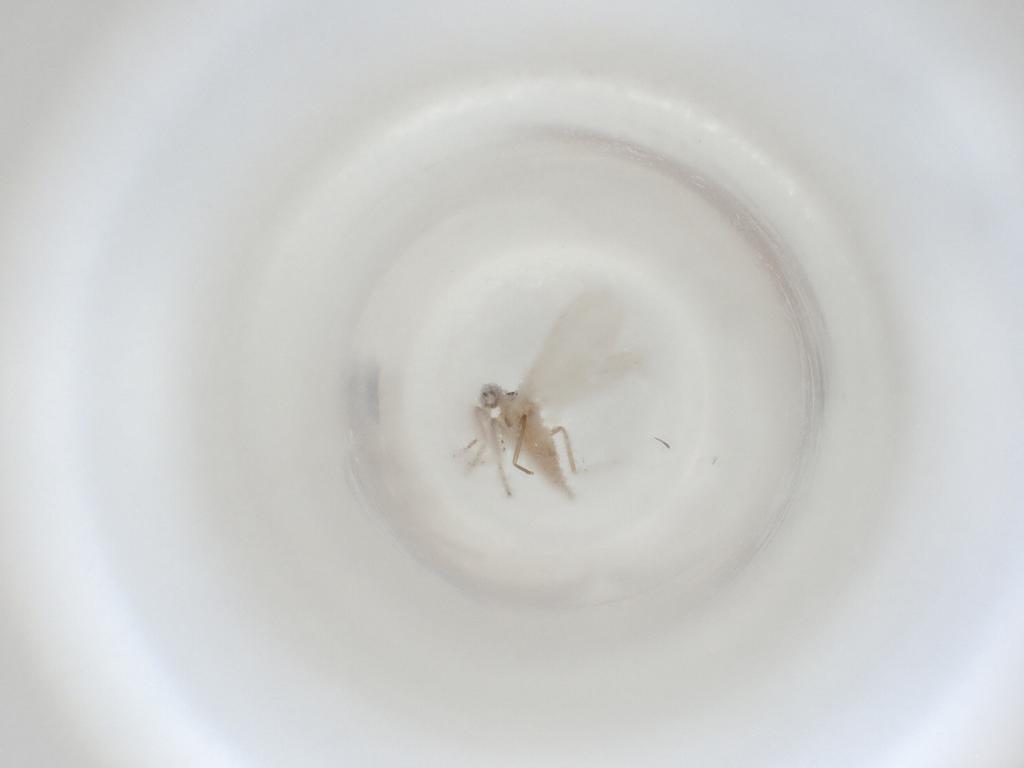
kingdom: Animalia
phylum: Arthropoda
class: Insecta
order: Diptera
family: Cecidomyiidae
